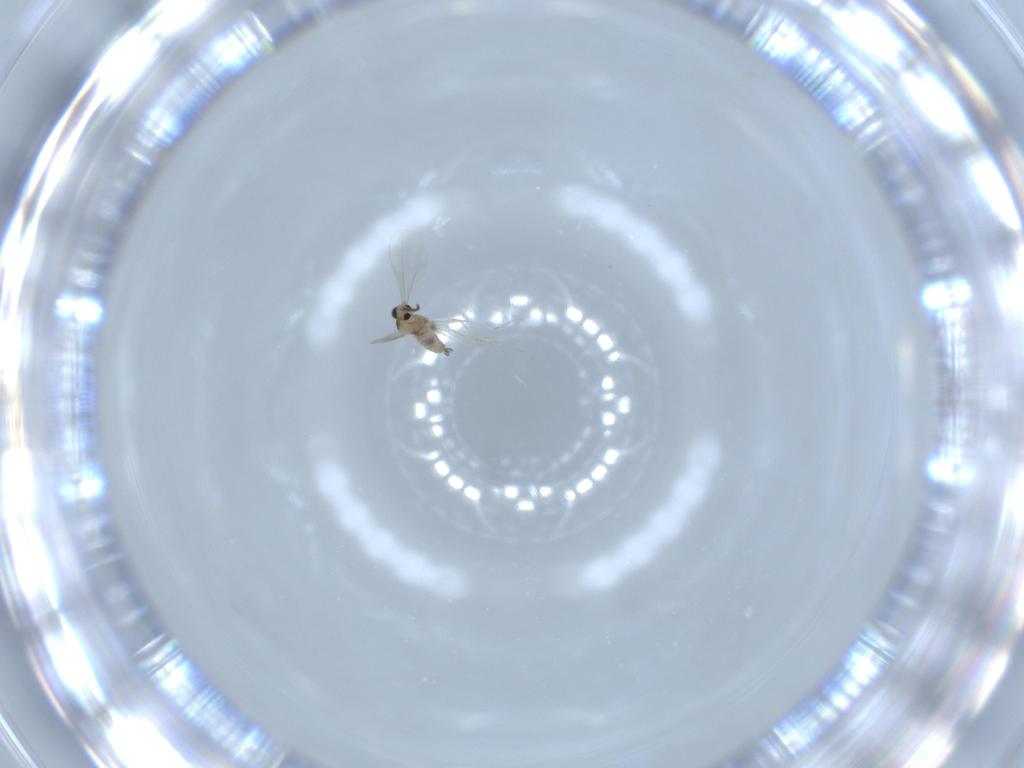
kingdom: Animalia
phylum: Arthropoda
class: Insecta
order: Diptera
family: Cecidomyiidae
